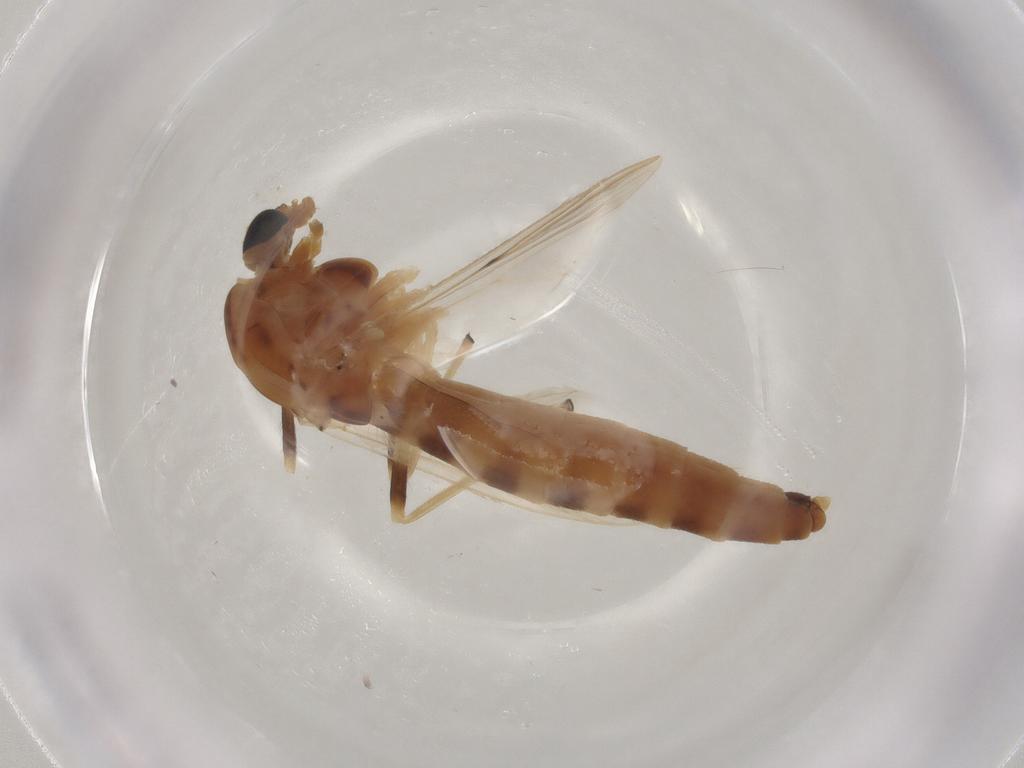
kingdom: Animalia
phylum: Arthropoda
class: Insecta
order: Diptera
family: Chironomidae
